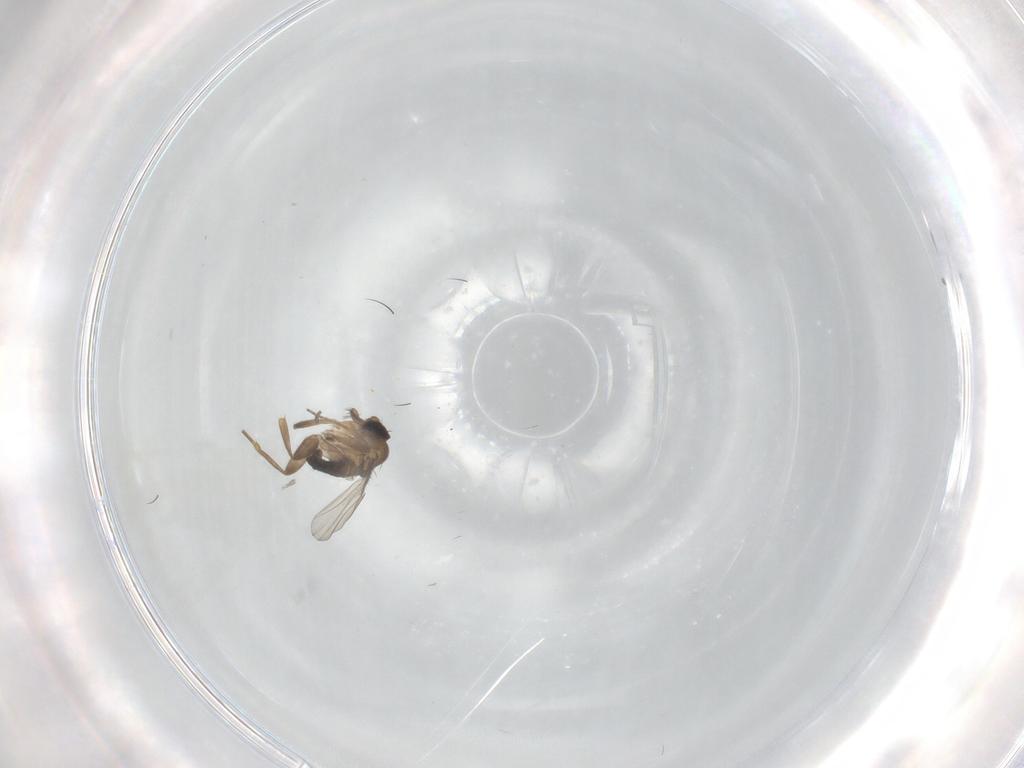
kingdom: Animalia
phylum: Arthropoda
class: Insecta
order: Diptera
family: Phoridae
